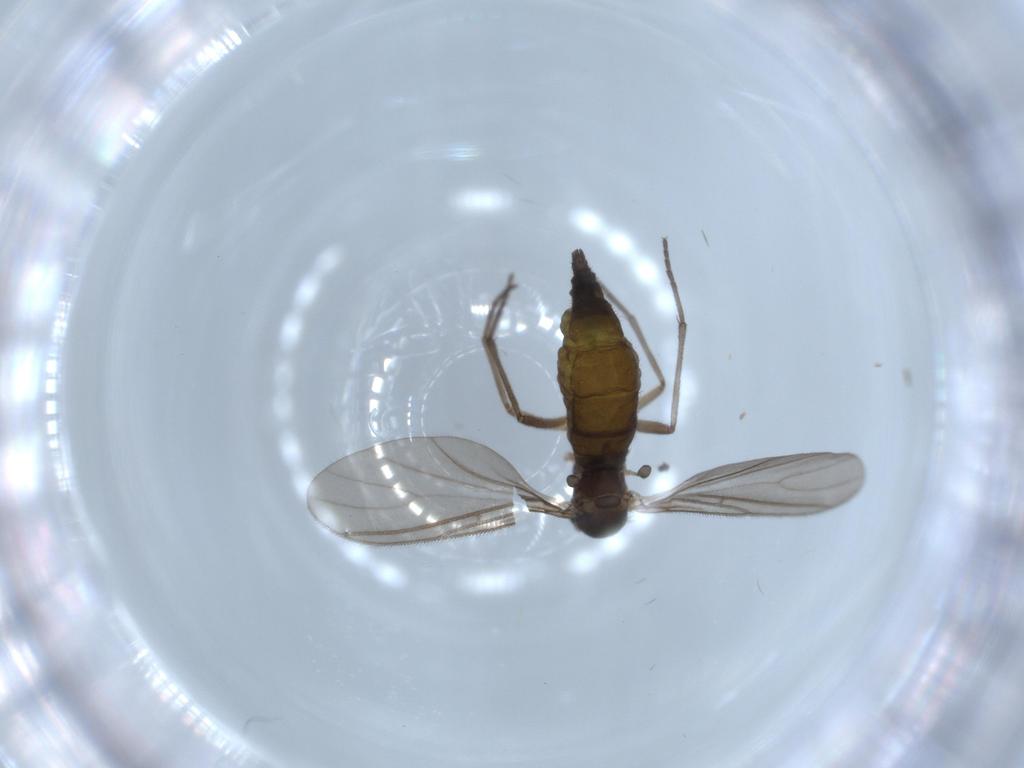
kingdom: Animalia
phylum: Arthropoda
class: Insecta
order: Diptera
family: Sciaridae
